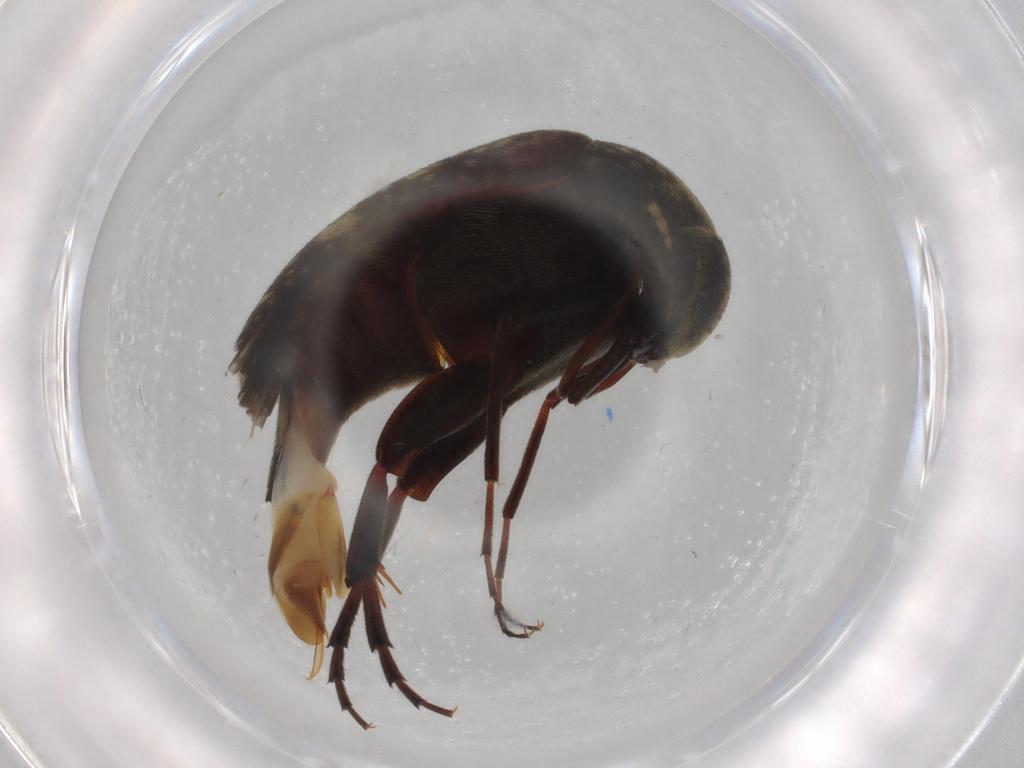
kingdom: Animalia
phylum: Arthropoda
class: Insecta
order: Coleoptera
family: Mordellidae
